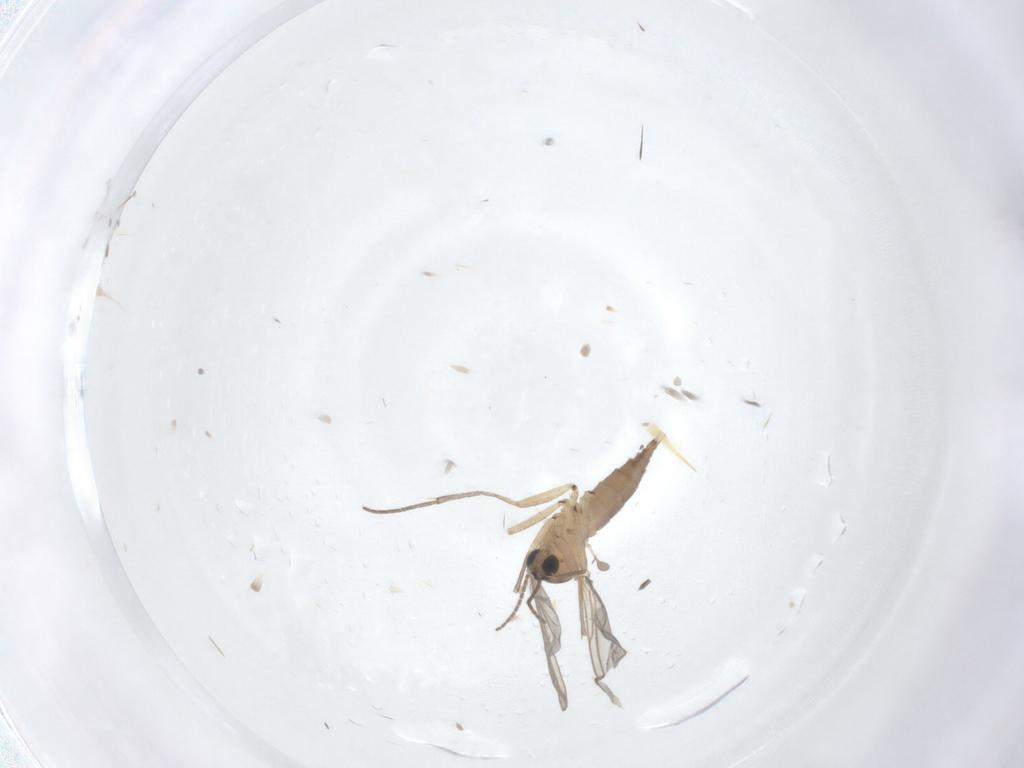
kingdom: Animalia
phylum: Arthropoda
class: Insecta
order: Diptera
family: Sciaridae
